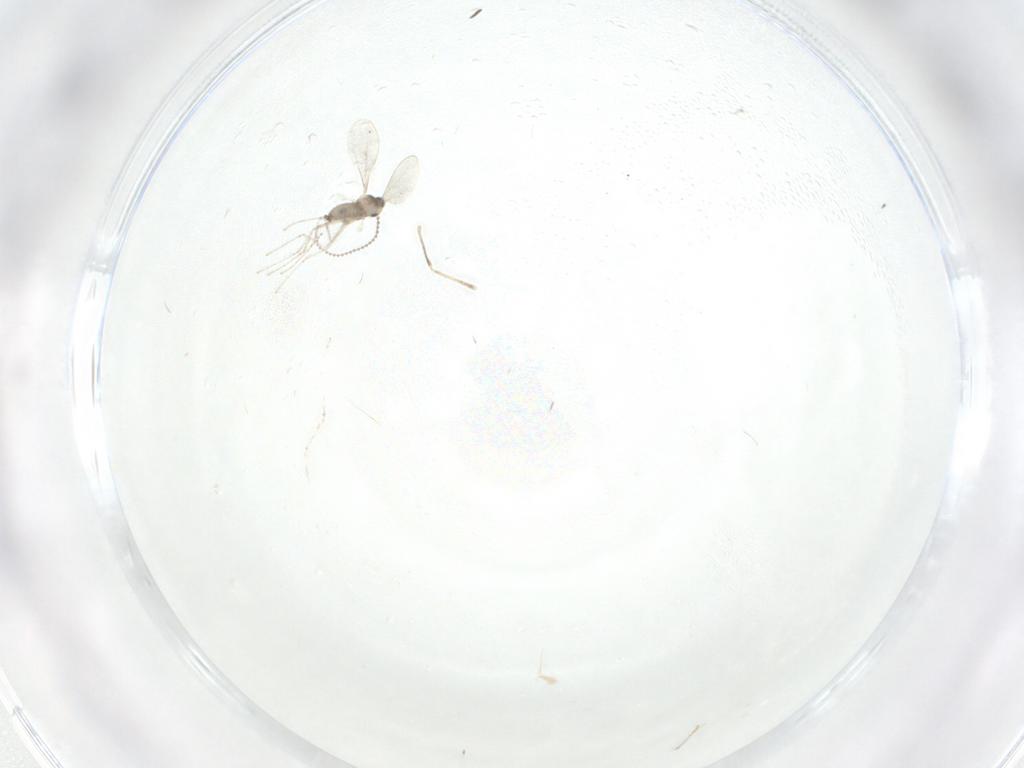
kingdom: Animalia
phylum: Arthropoda
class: Insecta
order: Diptera
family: Cecidomyiidae
